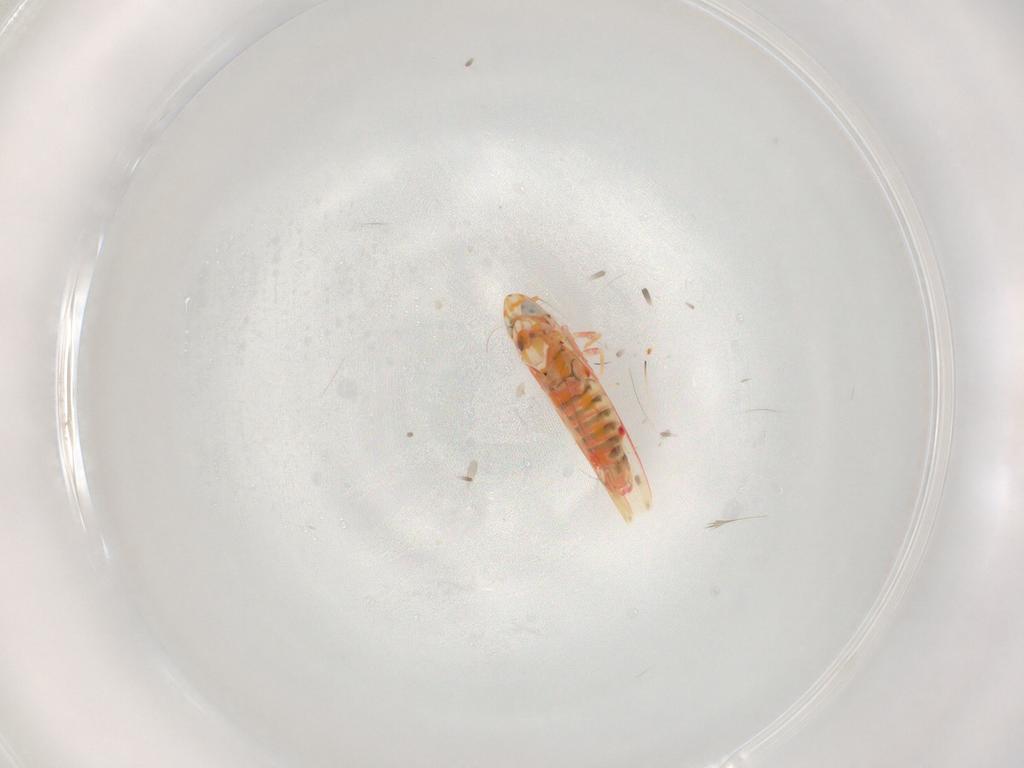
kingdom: Animalia
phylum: Arthropoda
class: Insecta
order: Hemiptera
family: Cicadellidae
